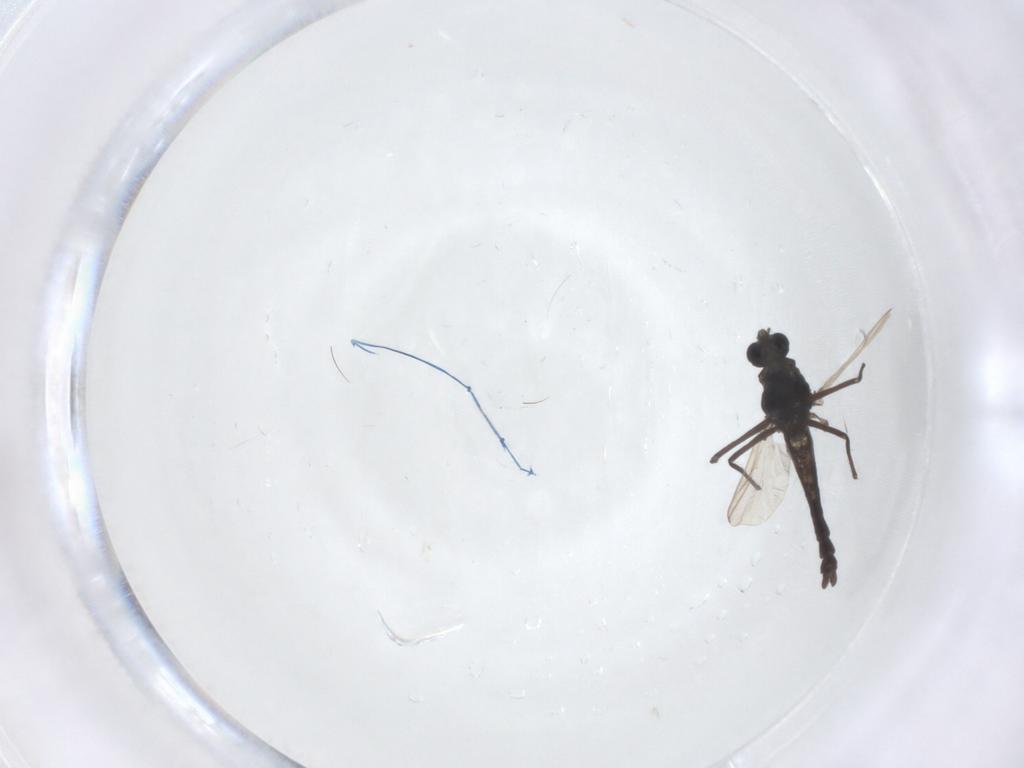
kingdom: Animalia
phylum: Arthropoda
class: Insecta
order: Diptera
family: Chironomidae
